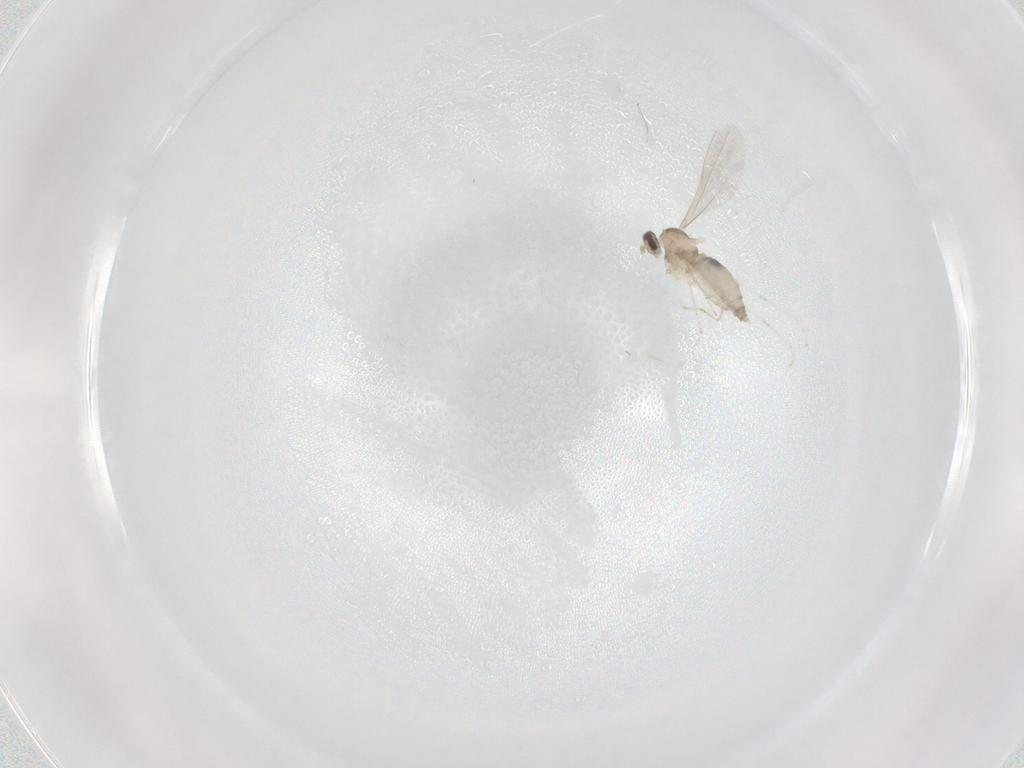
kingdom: Animalia
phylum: Arthropoda
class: Insecta
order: Diptera
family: Cecidomyiidae
